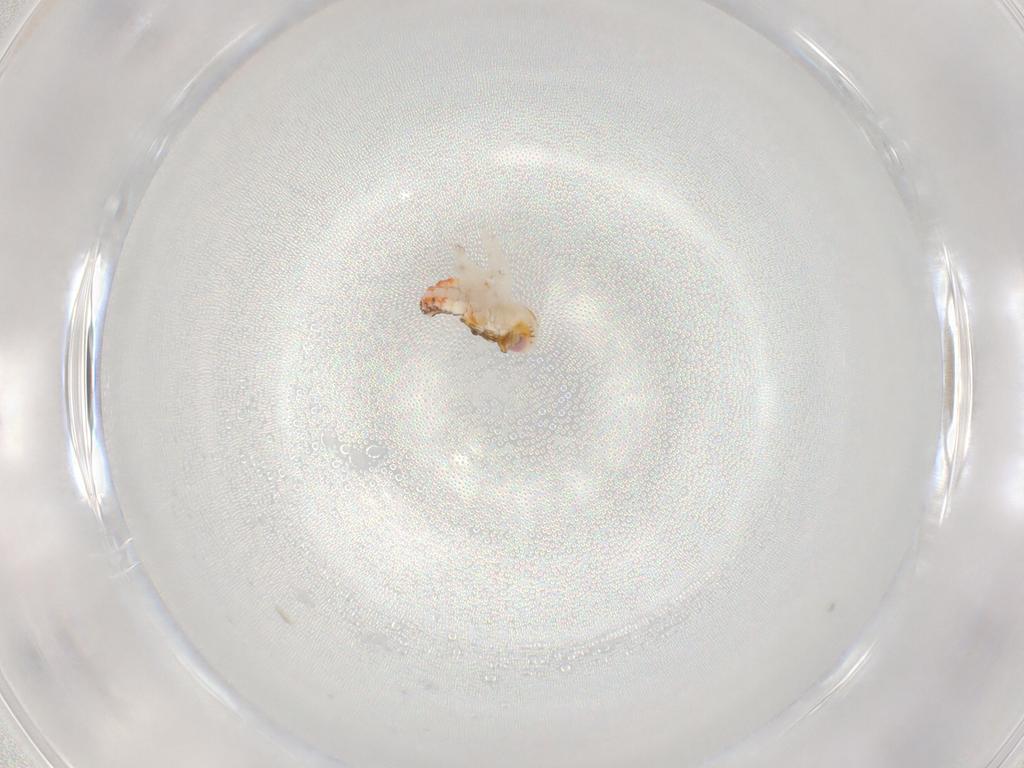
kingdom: Animalia
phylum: Arthropoda
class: Insecta
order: Hemiptera
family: Nogodinidae
